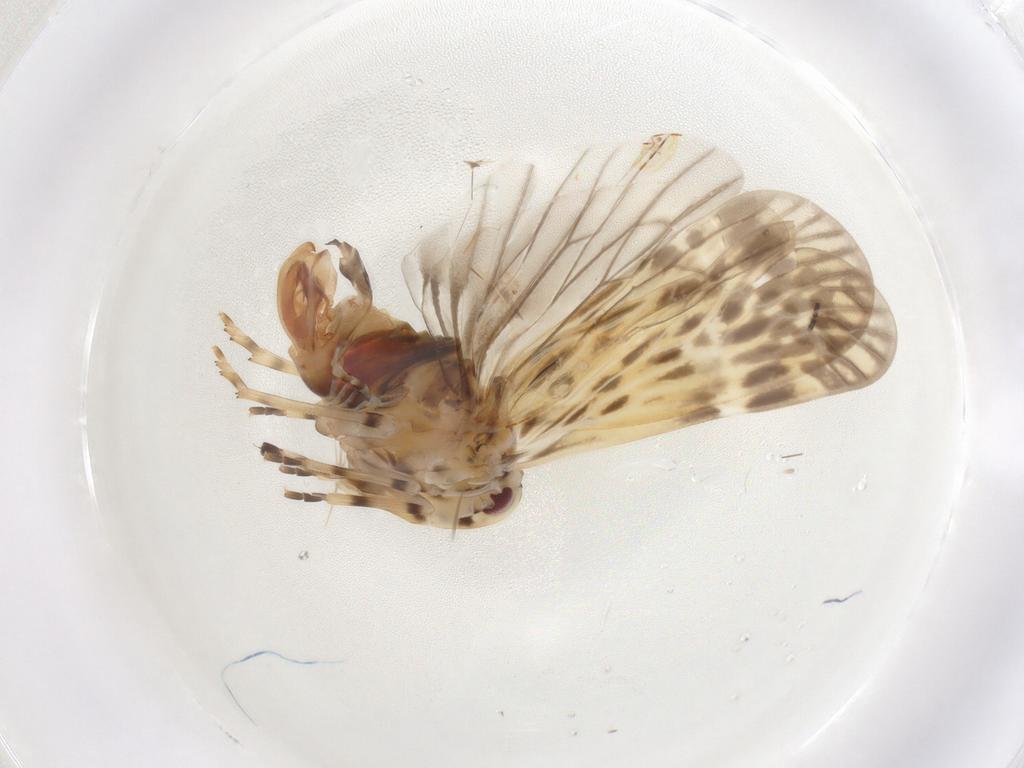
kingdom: Animalia
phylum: Arthropoda
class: Insecta
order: Hemiptera
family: Derbidae
